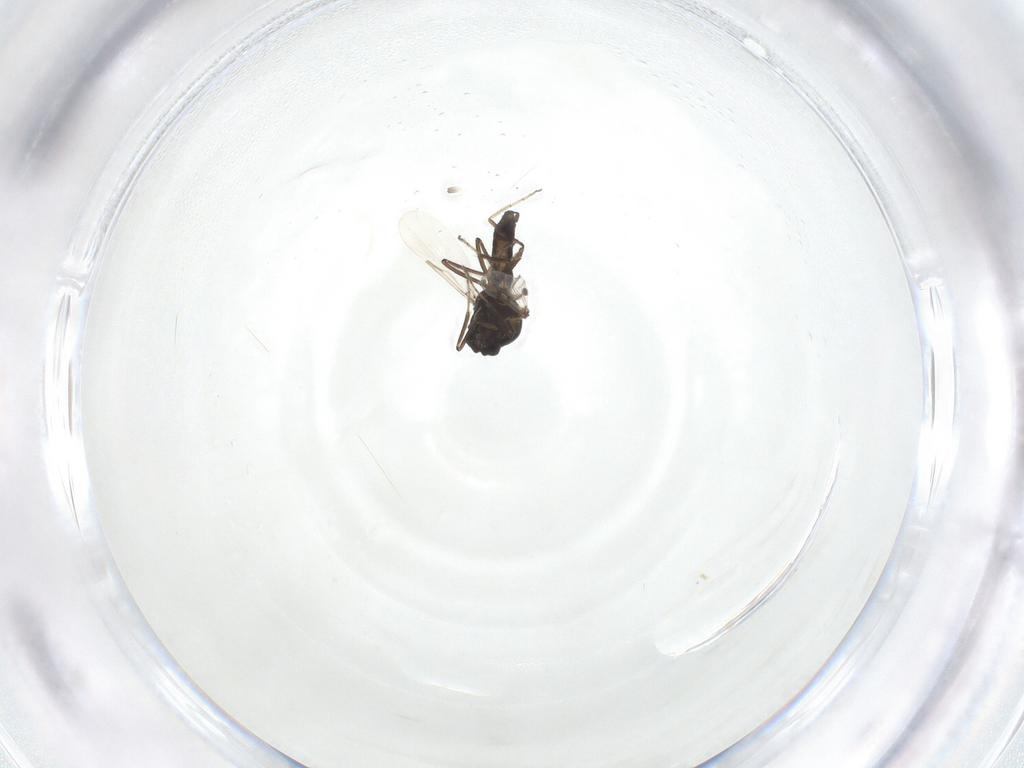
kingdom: Animalia
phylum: Arthropoda
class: Insecta
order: Diptera
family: Ceratopogonidae
